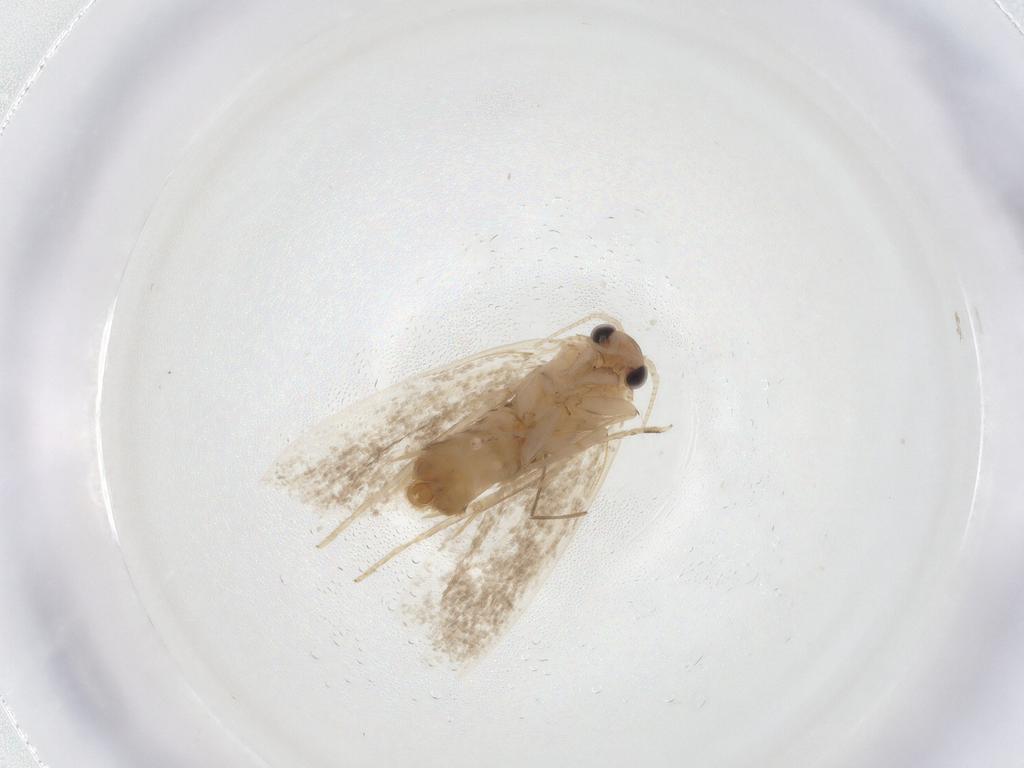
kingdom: Animalia
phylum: Arthropoda
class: Insecta
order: Lepidoptera
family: Tineidae
